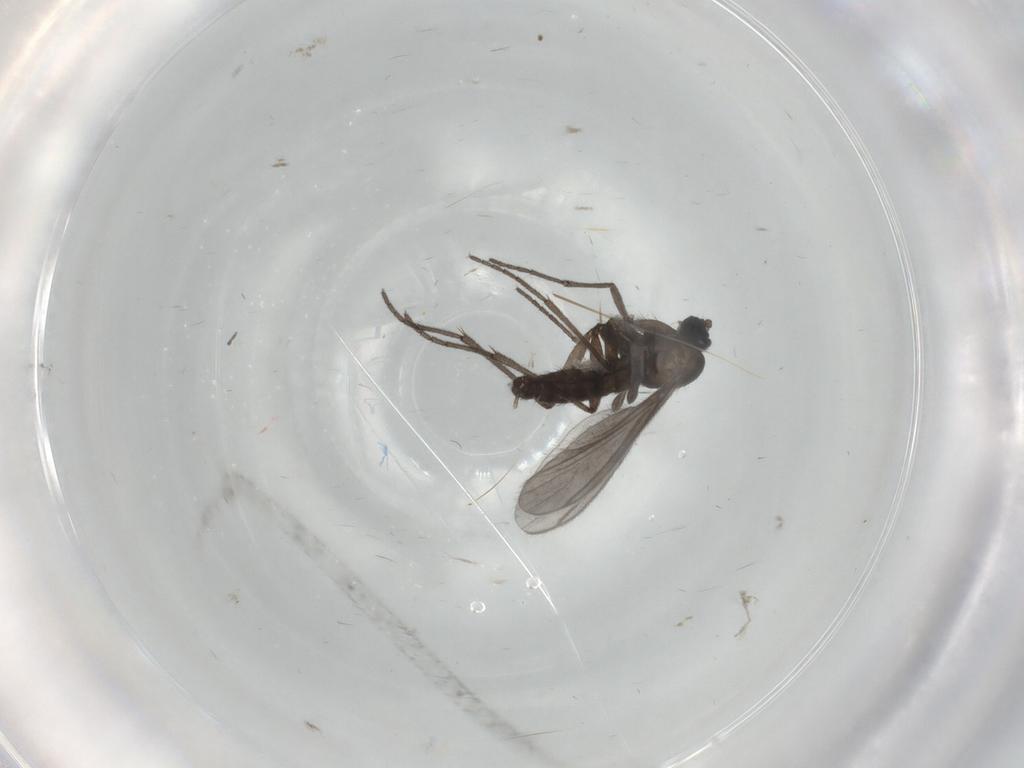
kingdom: Animalia
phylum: Arthropoda
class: Insecta
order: Diptera
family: Sciaridae
